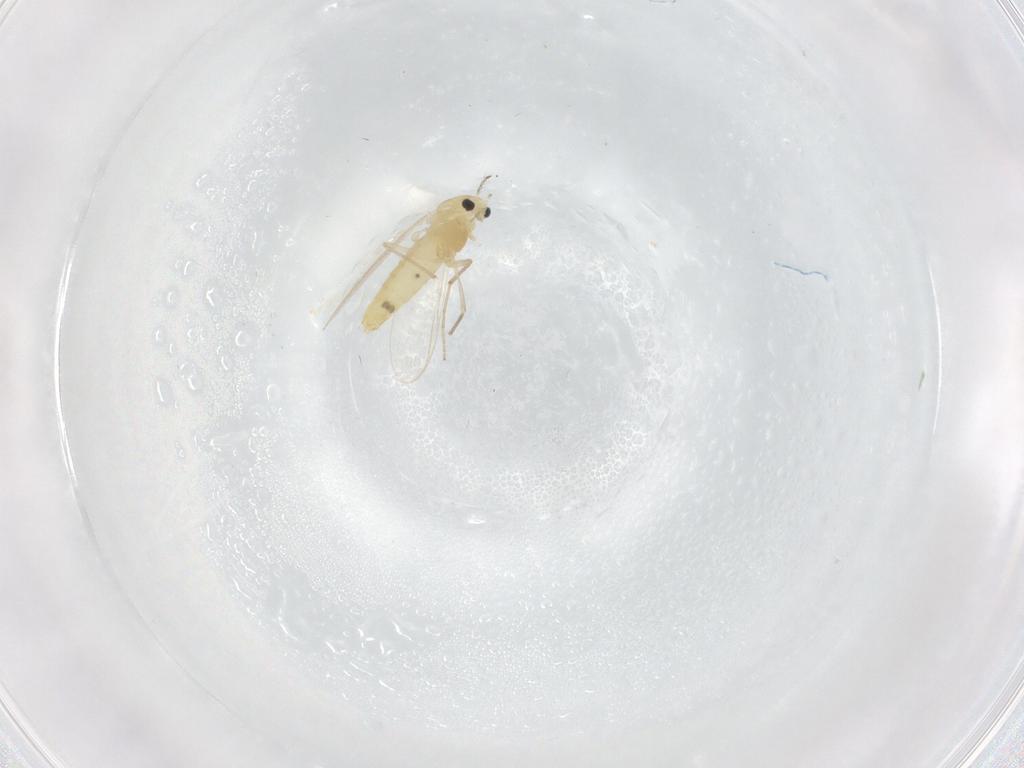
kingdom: Animalia
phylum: Arthropoda
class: Insecta
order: Diptera
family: Chironomidae
